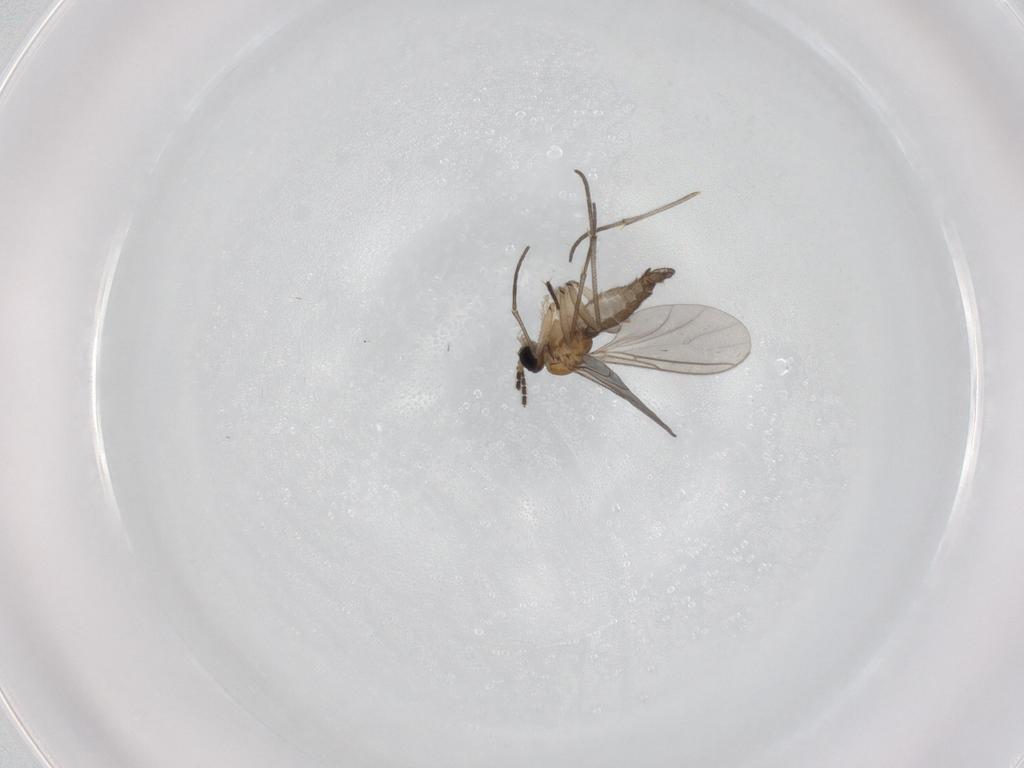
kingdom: Animalia
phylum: Arthropoda
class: Insecta
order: Diptera
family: Sciaridae
